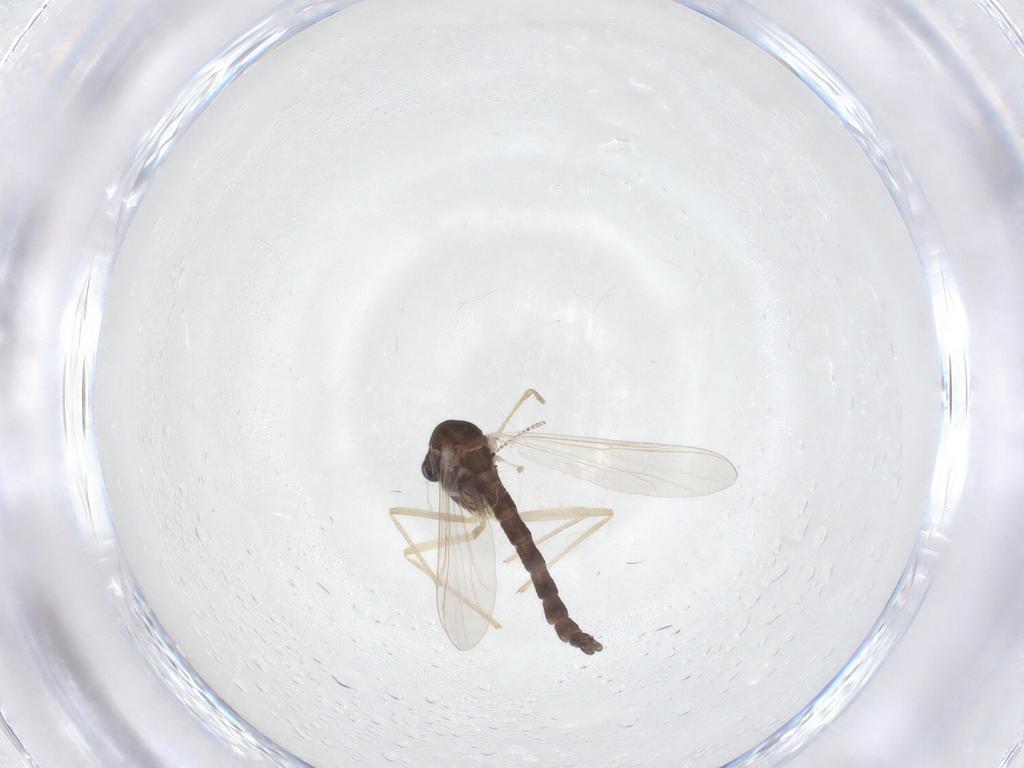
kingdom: Animalia
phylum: Arthropoda
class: Insecta
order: Diptera
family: Chironomidae
